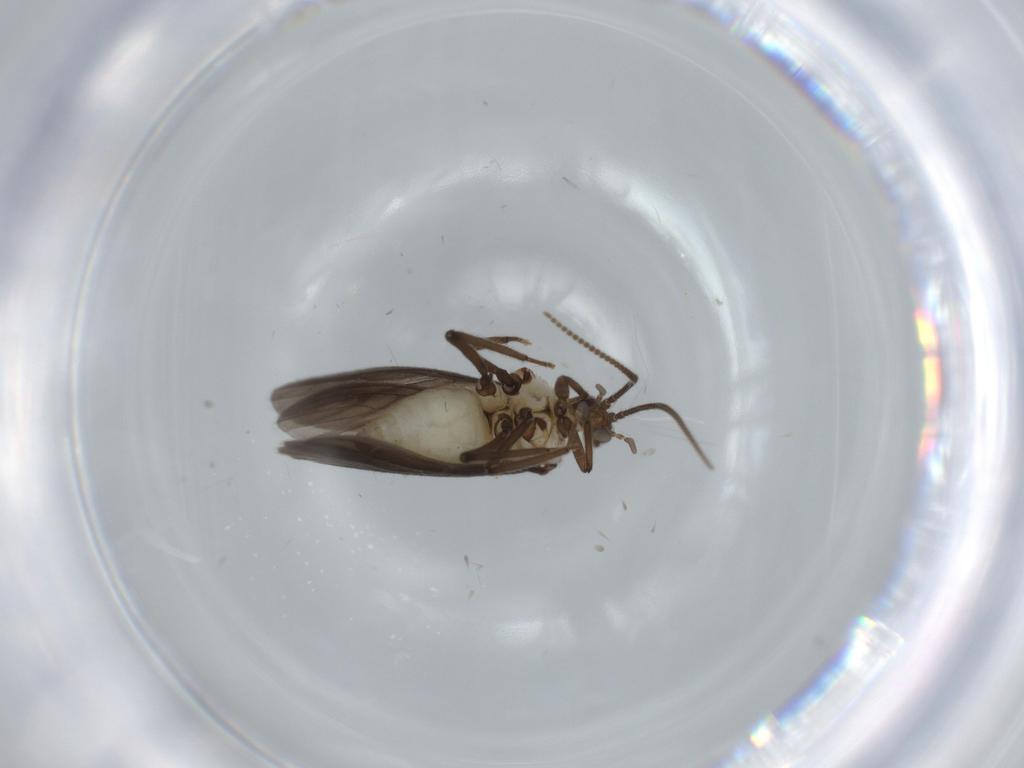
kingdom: Animalia
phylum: Arthropoda
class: Insecta
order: Neuroptera
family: Coniopterygidae
